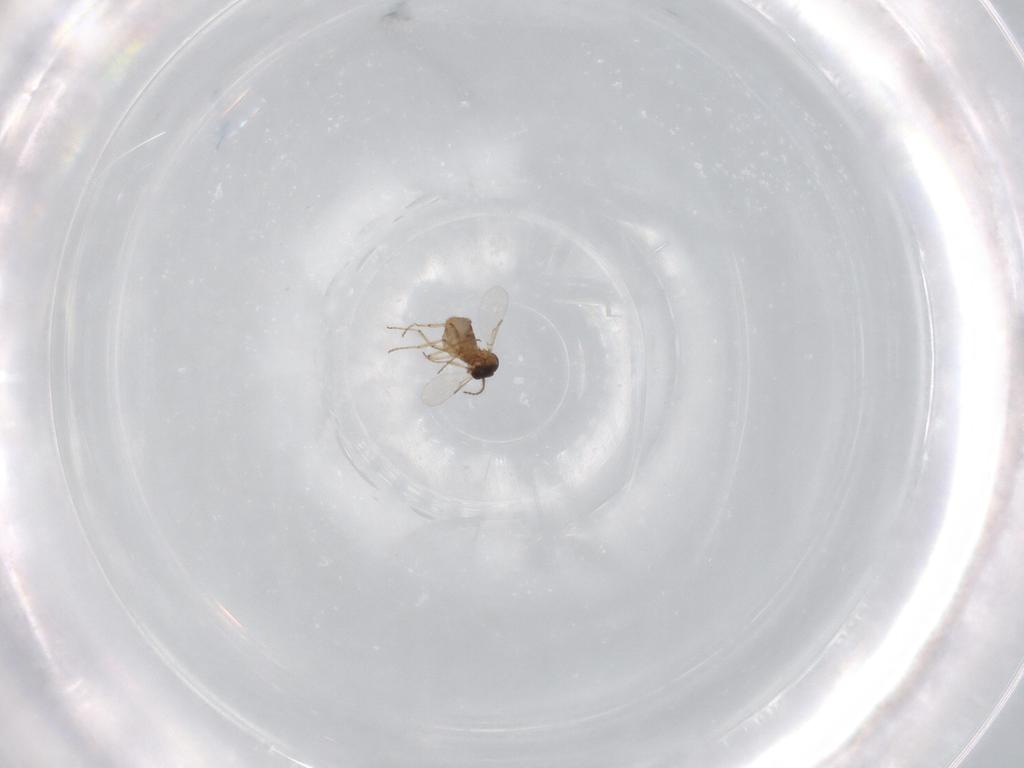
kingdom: Animalia
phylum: Arthropoda
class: Insecta
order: Diptera
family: Ceratopogonidae
